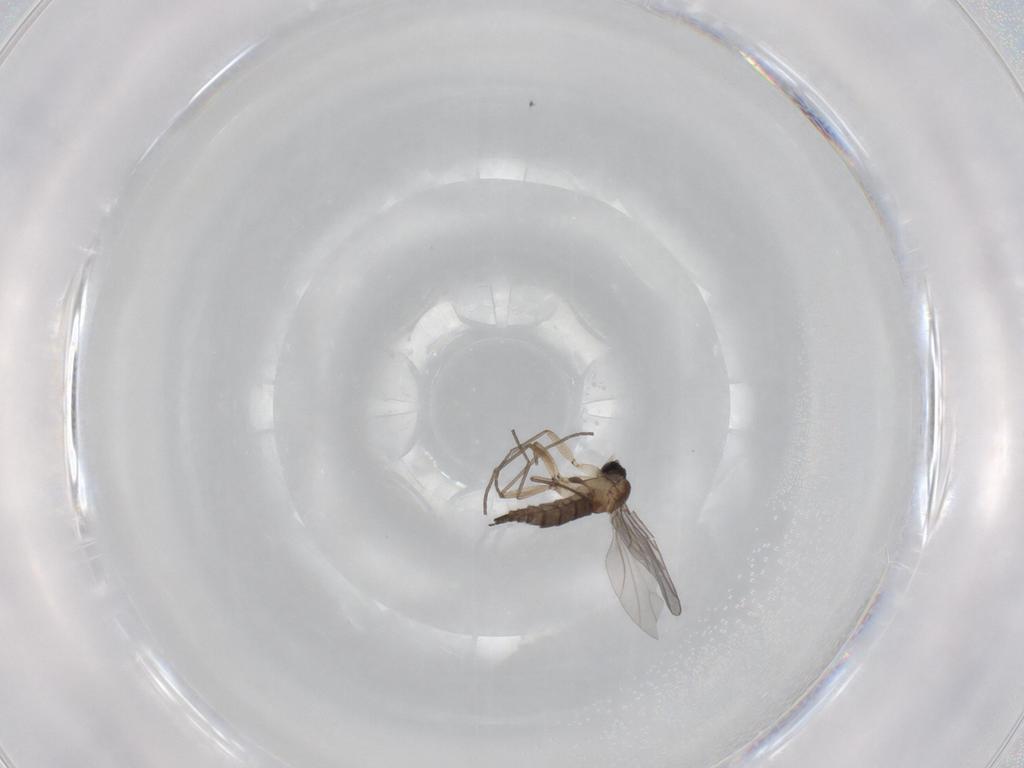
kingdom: Animalia
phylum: Arthropoda
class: Insecta
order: Diptera
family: Sciaridae
